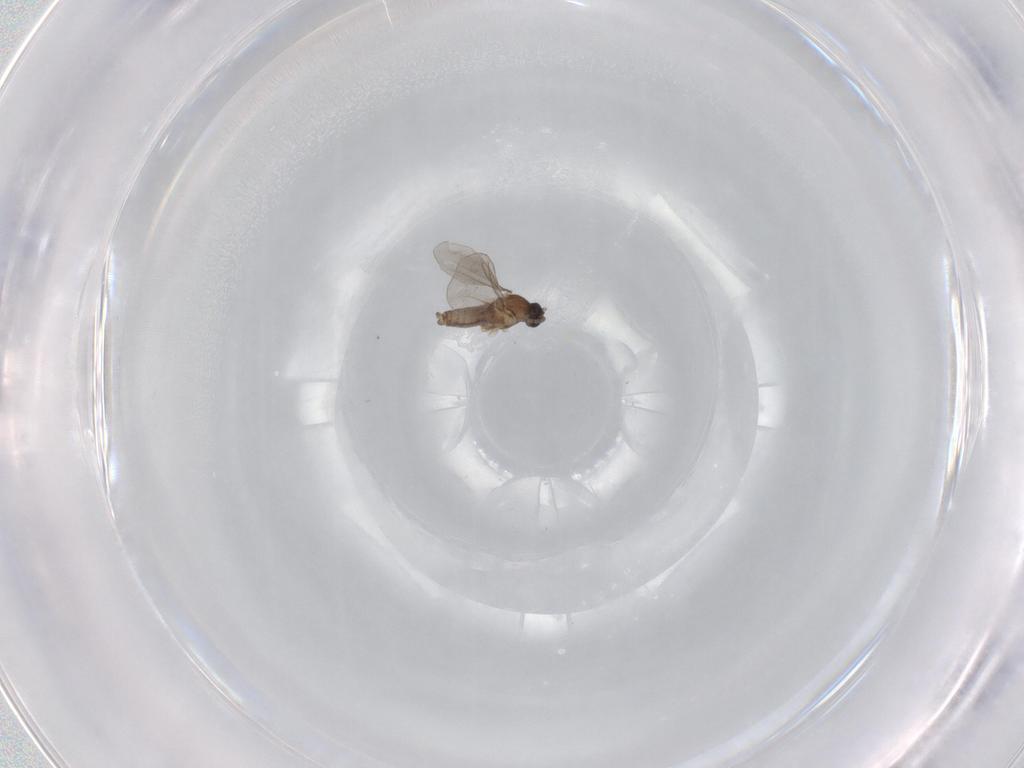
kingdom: Animalia
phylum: Arthropoda
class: Insecta
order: Diptera
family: Cecidomyiidae
